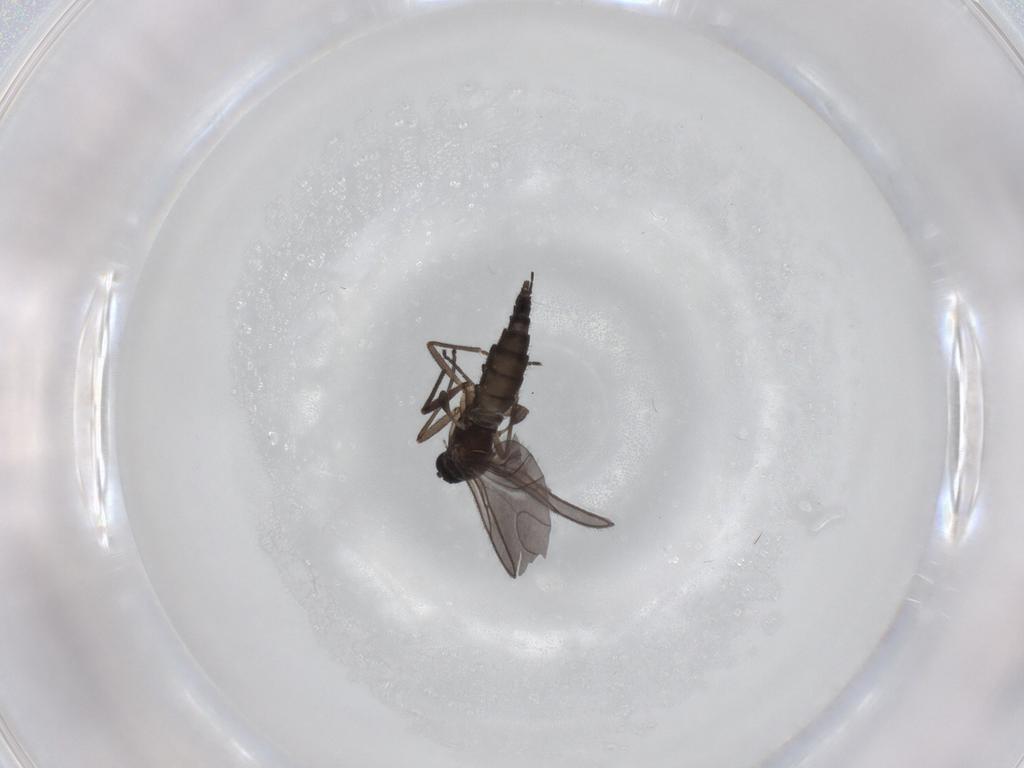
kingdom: Animalia
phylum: Arthropoda
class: Insecta
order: Diptera
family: Sciaridae
